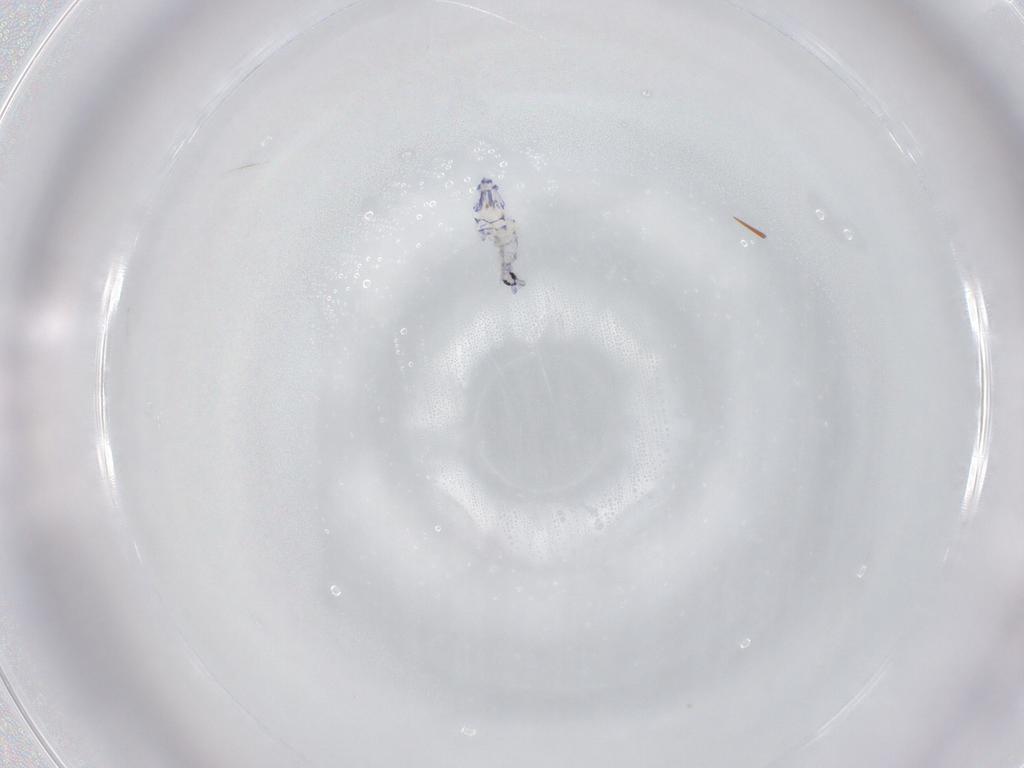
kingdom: Animalia
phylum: Arthropoda
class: Collembola
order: Entomobryomorpha
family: Entomobryidae
